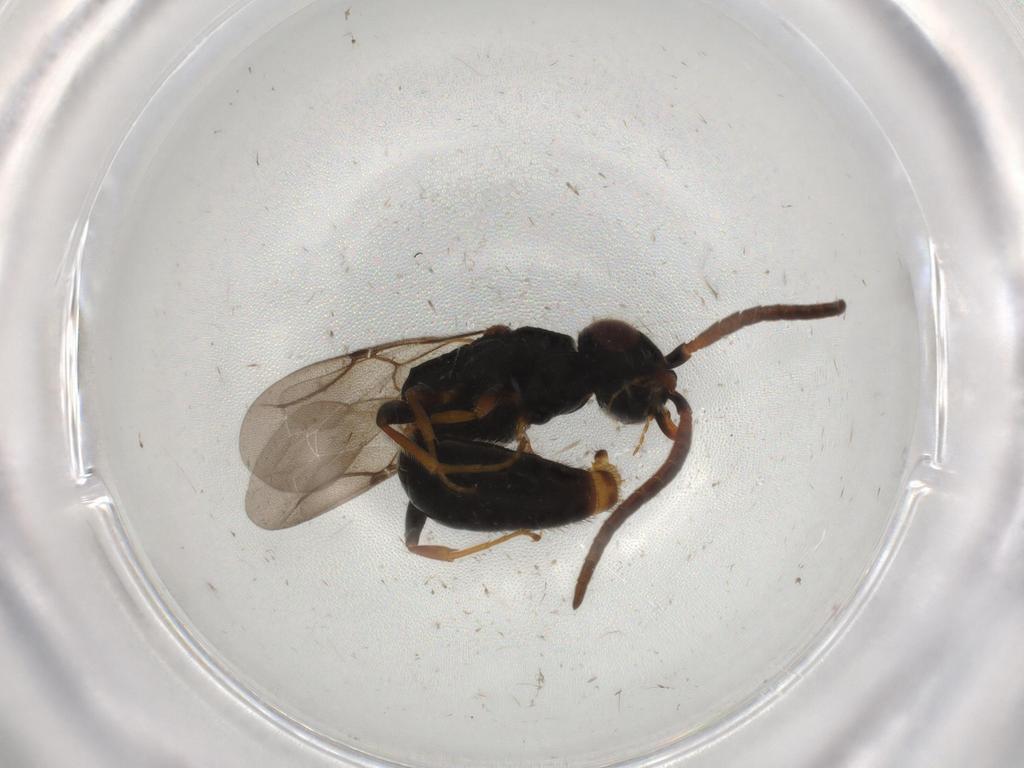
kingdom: Animalia
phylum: Arthropoda
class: Insecta
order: Hymenoptera
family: Bethylidae
